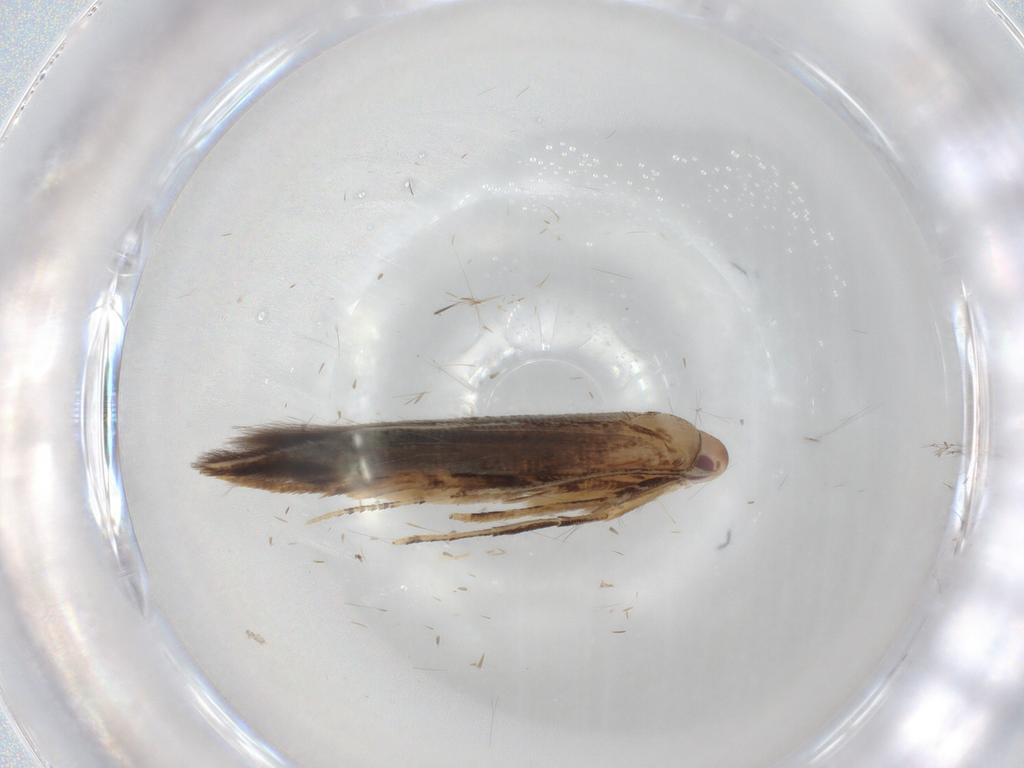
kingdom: Animalia
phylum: Arthropoda
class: Insecta
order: Lepidoptera
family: Cosmopterigidae
